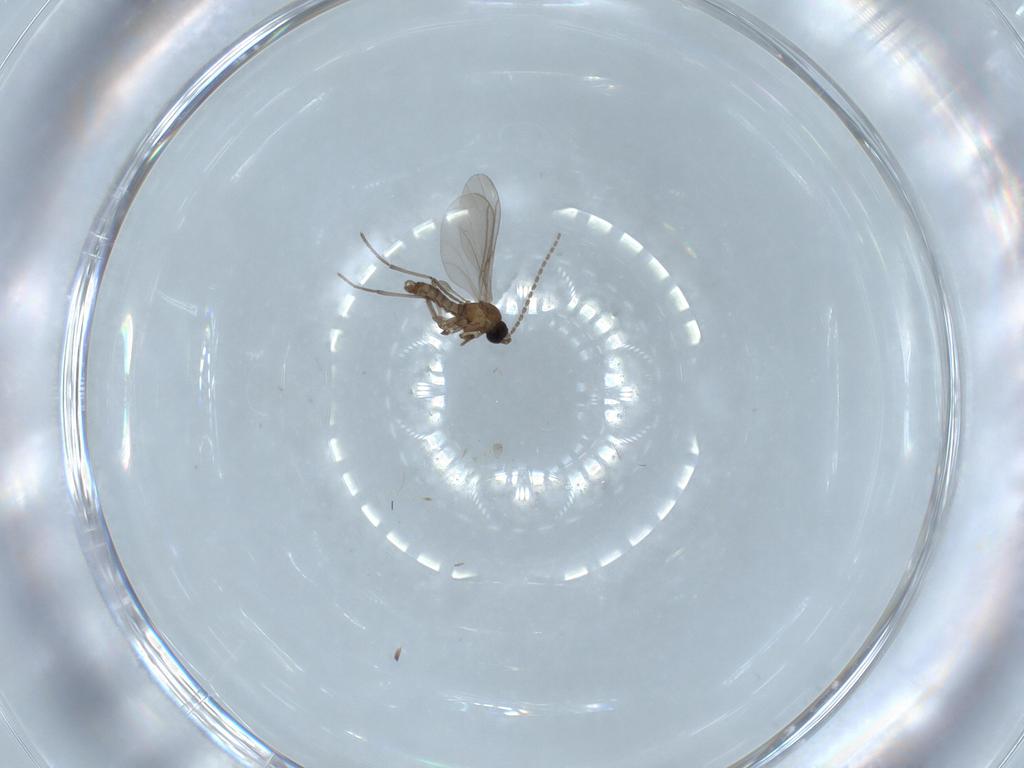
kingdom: Animalia
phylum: Arthropoda
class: Insecta
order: Diptera
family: Sciaridae
